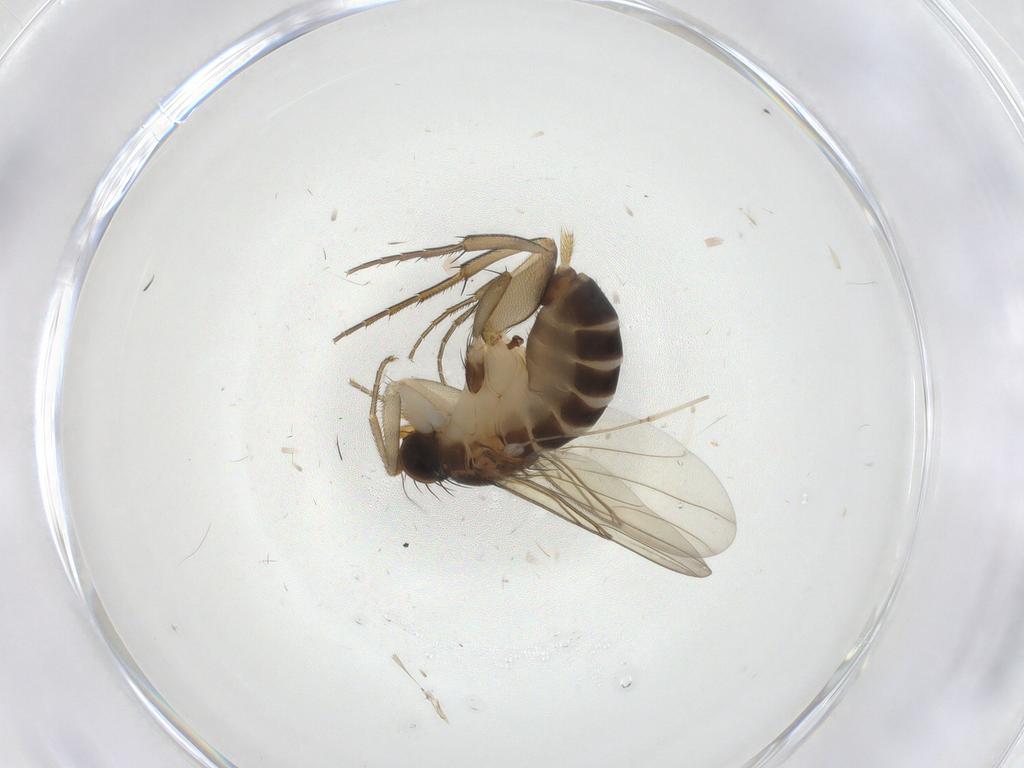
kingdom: Animalia
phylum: Arthropoda
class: Insecta
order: Diptera
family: Phoridae
